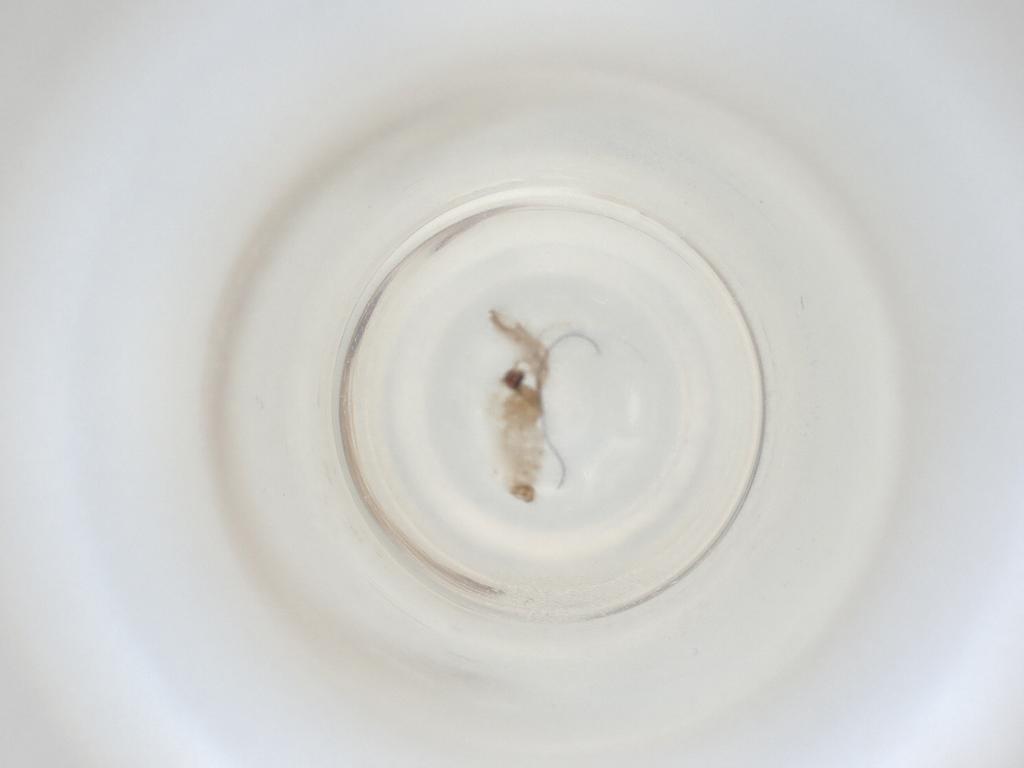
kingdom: Animalia
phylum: Arthropoda
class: Insecta
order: Diptera
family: Cecidomyiidae
